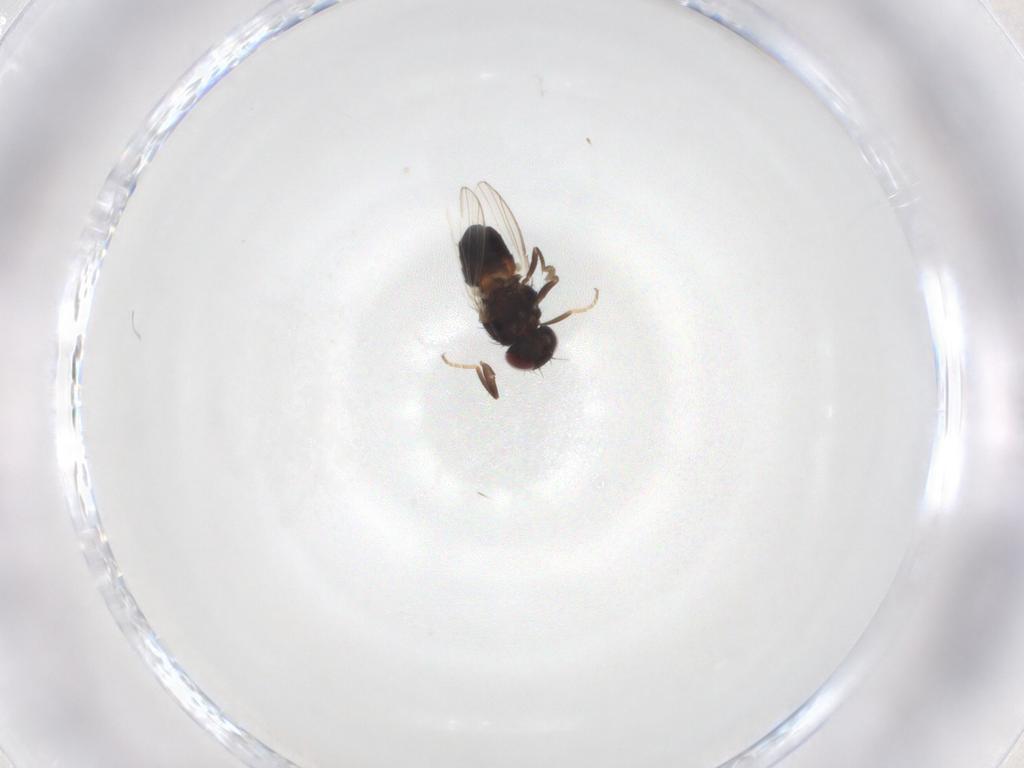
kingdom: Animalia
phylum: Arthropoda
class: Insecta
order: Diptera
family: Carnidae
